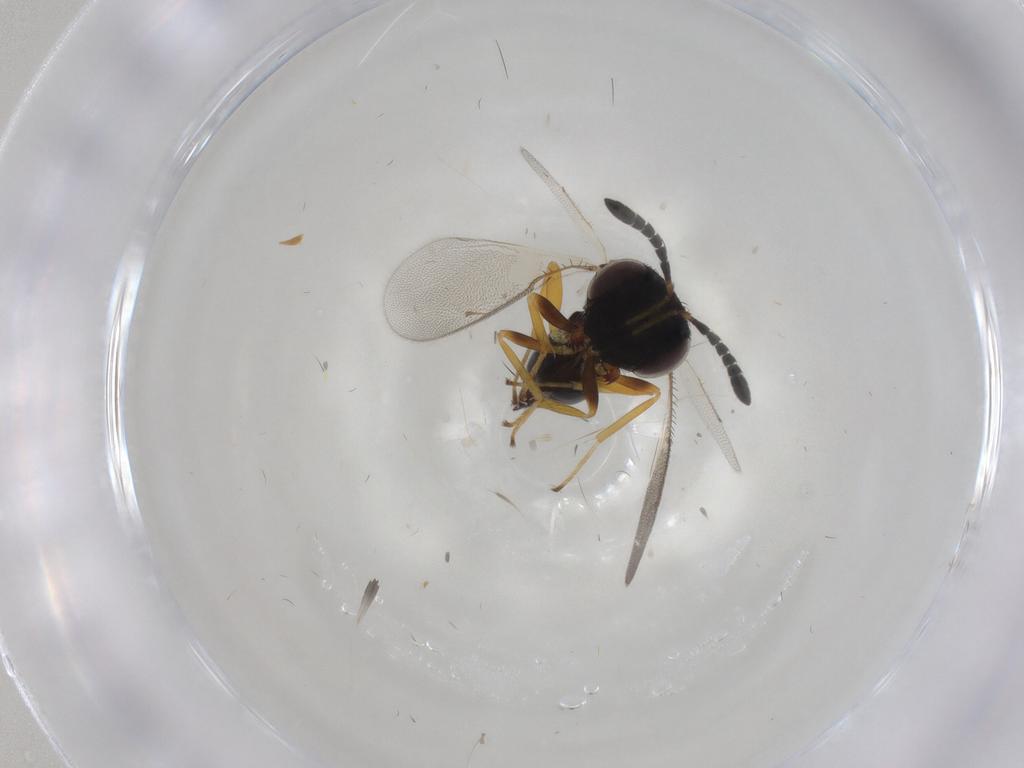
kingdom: Animalia
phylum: Arthropoda
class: Insecta
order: Hymenoptera
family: Pteromalidae
